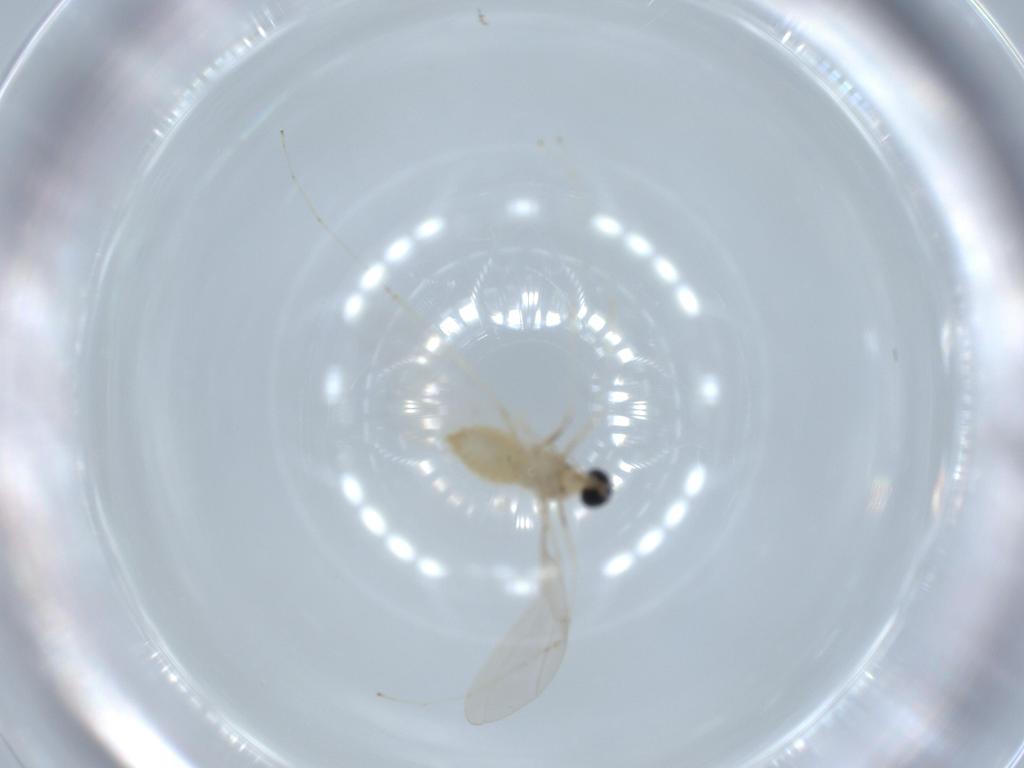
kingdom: Animalia
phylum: Arthropoda
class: Insecta
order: Diptera
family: Cecidomyiidae
